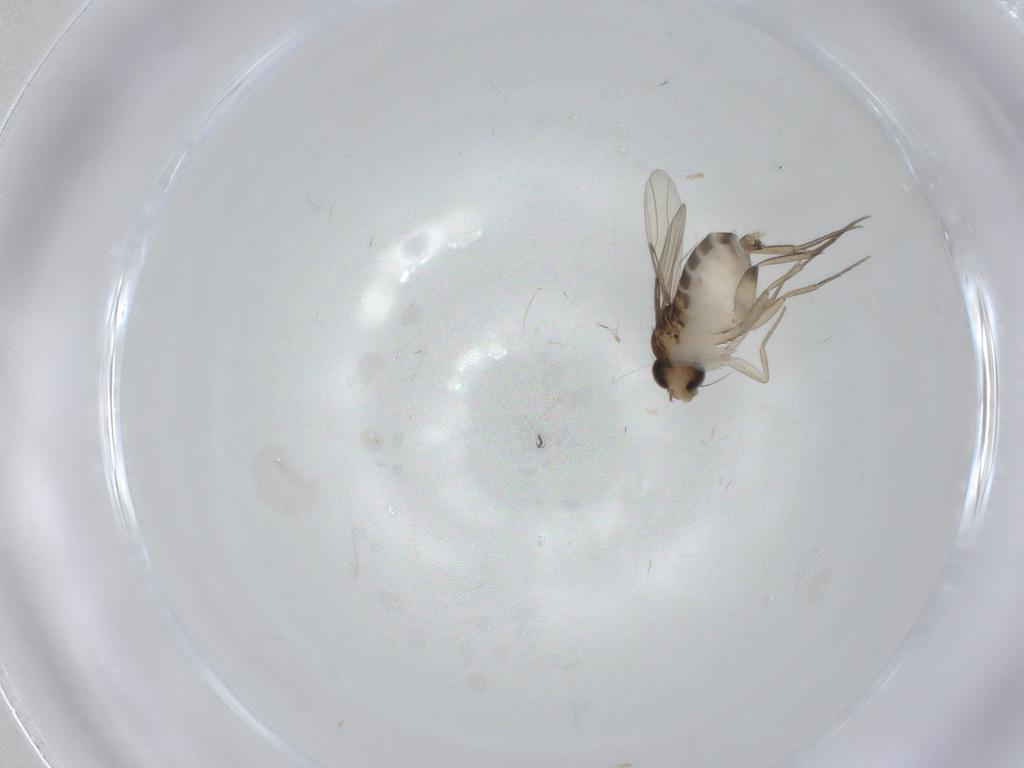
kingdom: Animalia
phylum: Arthropoda
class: Insecta
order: Diptera
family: Phoridae
